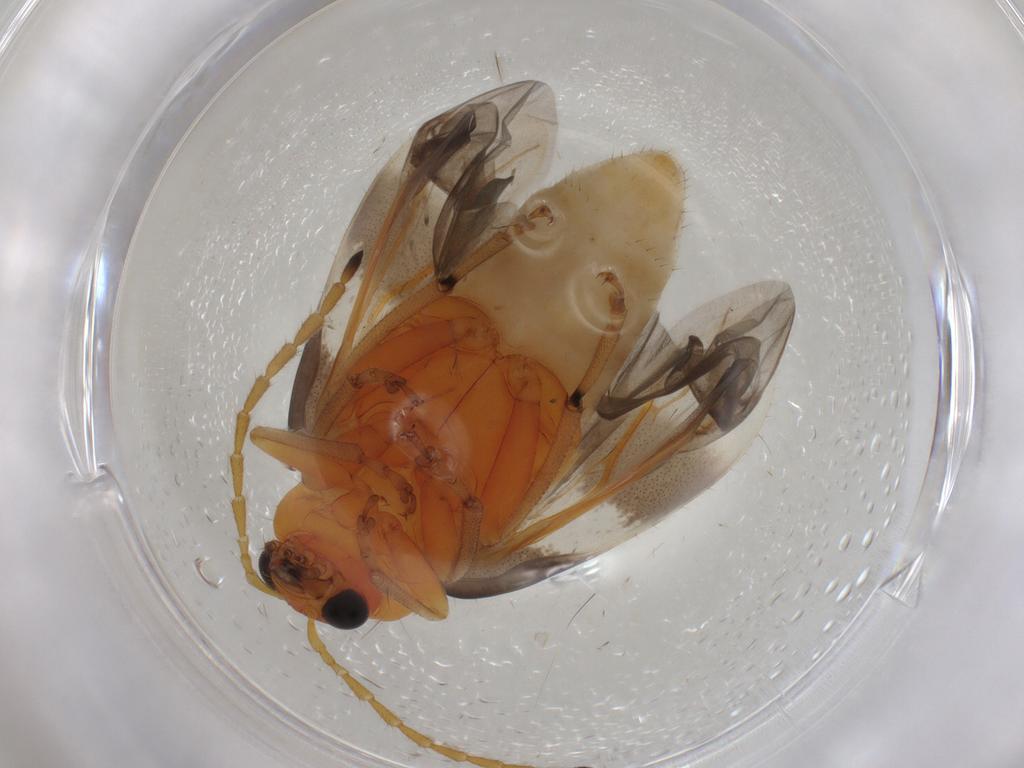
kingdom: Animalia
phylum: Arthropoda
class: Insecta
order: Coleoptera
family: Chrysomelidae
